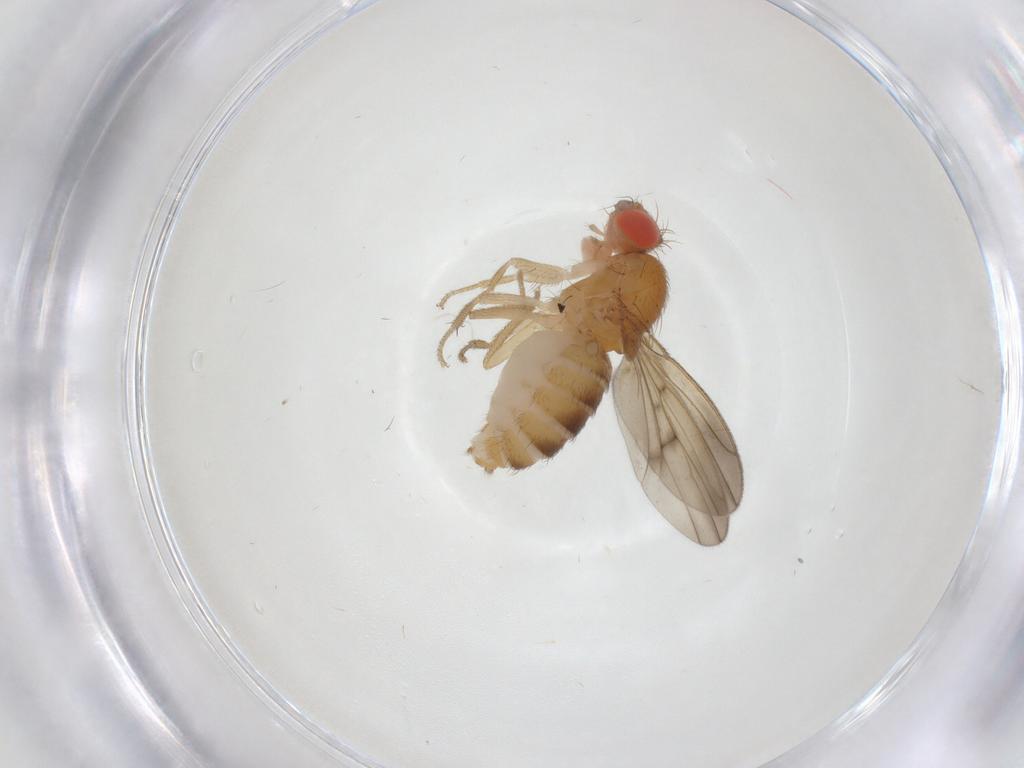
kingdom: Animalia
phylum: Arthropoda
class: Insecta
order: Diptera
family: Drosophilidae
